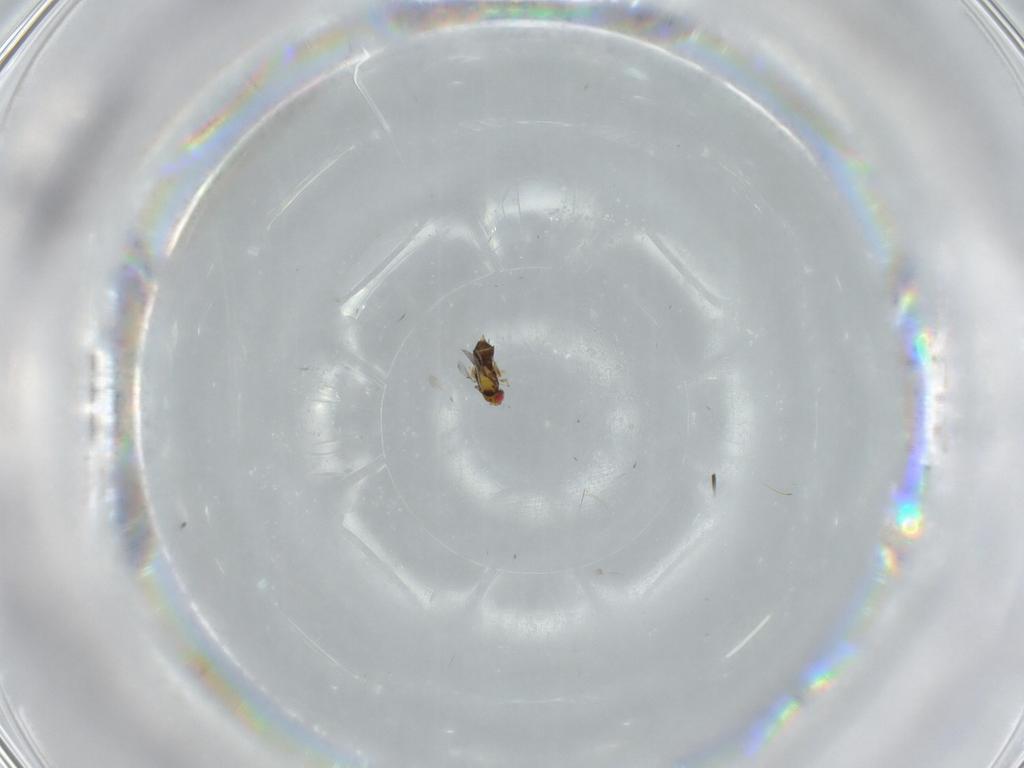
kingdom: Animalia
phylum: Arthropoda
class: Insecta
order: Hymenoptera
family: Trichogrammatidae
